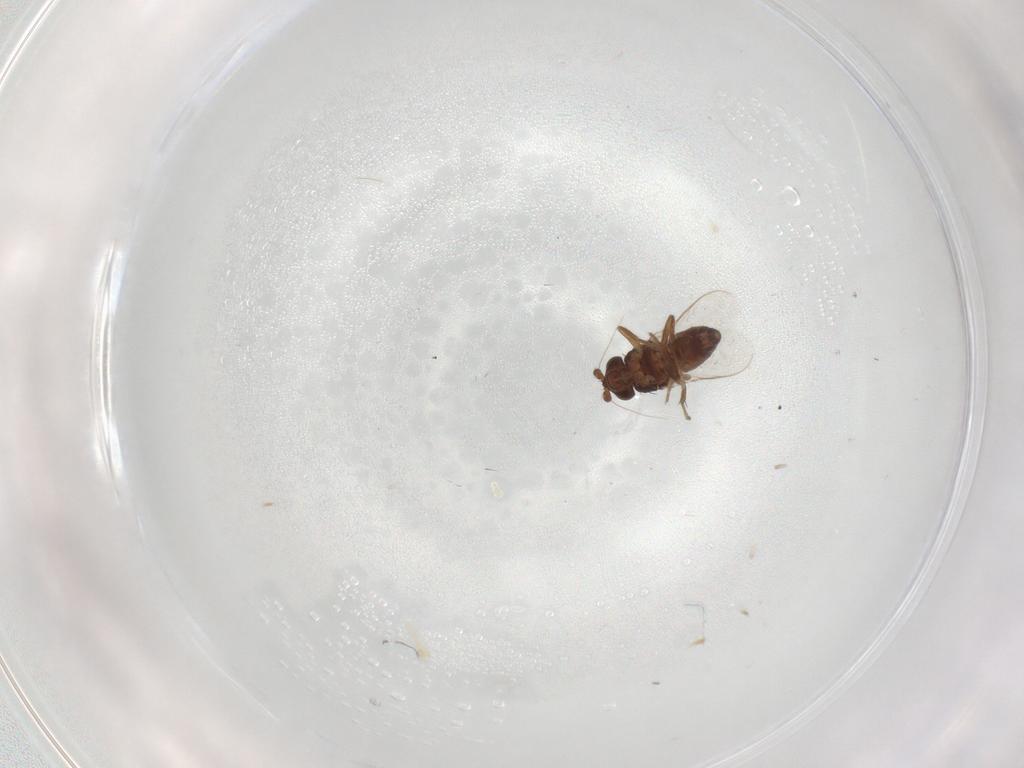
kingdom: Animalia
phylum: Arthropoda
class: Insecta
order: Diptera
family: Sphaeroceridae
